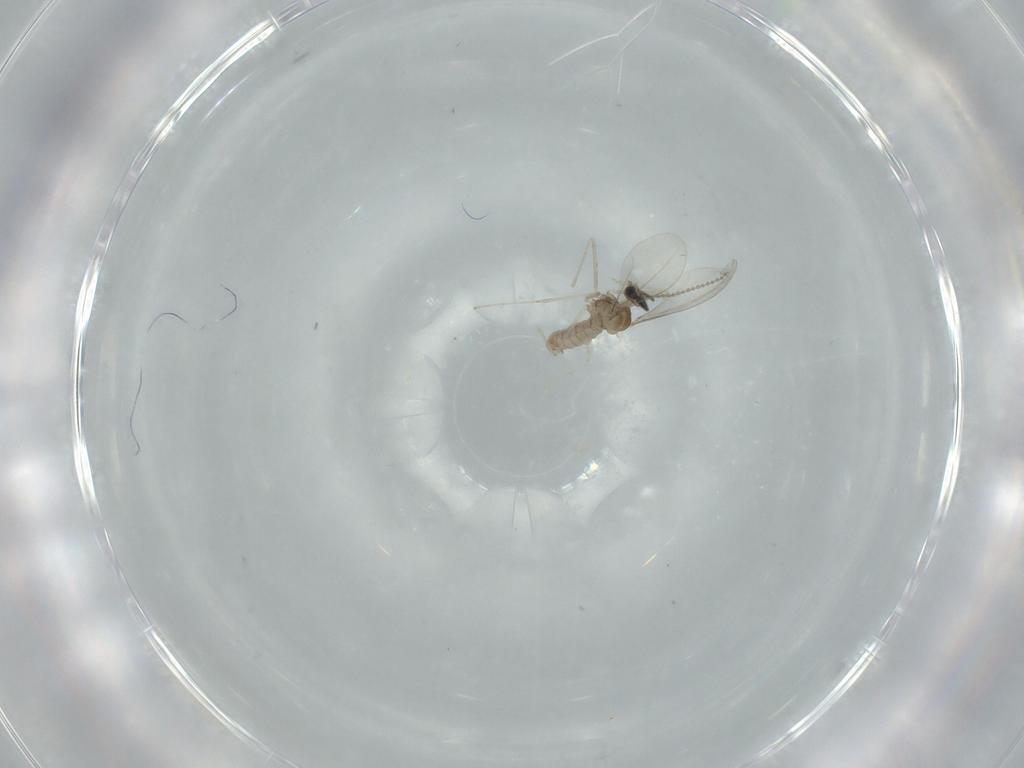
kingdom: Animalia
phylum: Arthropoda
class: Insecta
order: Diptera
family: Cecidomyiidae
